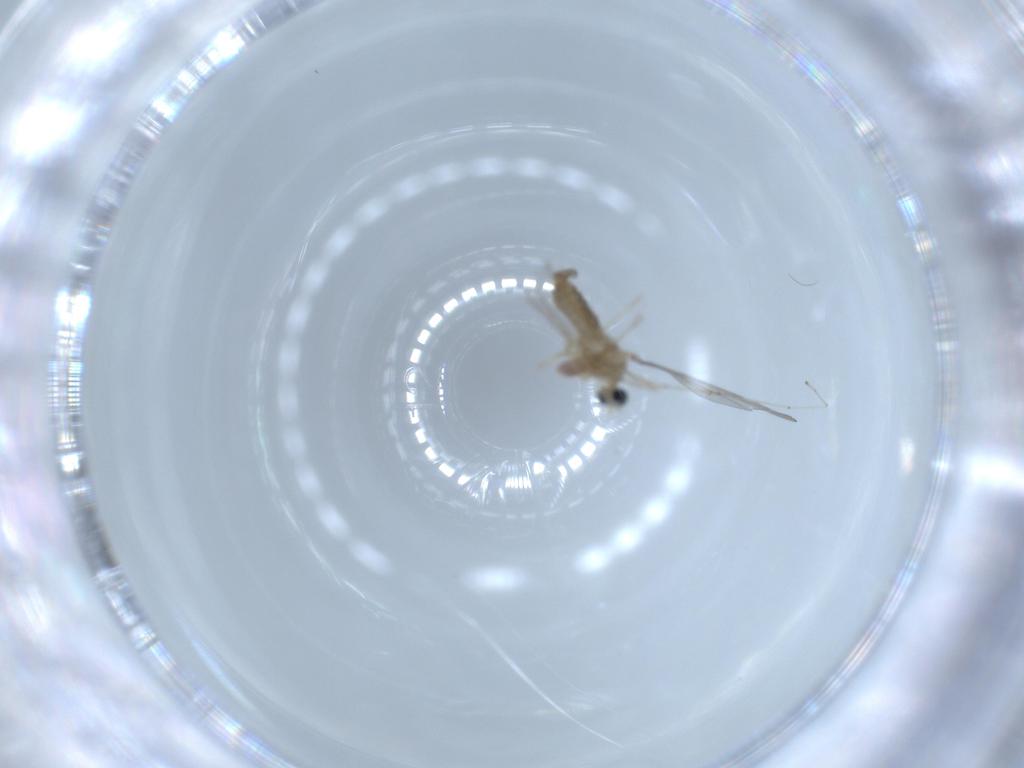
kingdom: Animalia
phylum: Arthropoda
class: Insecta
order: Diptera
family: Cecidomyiidae
